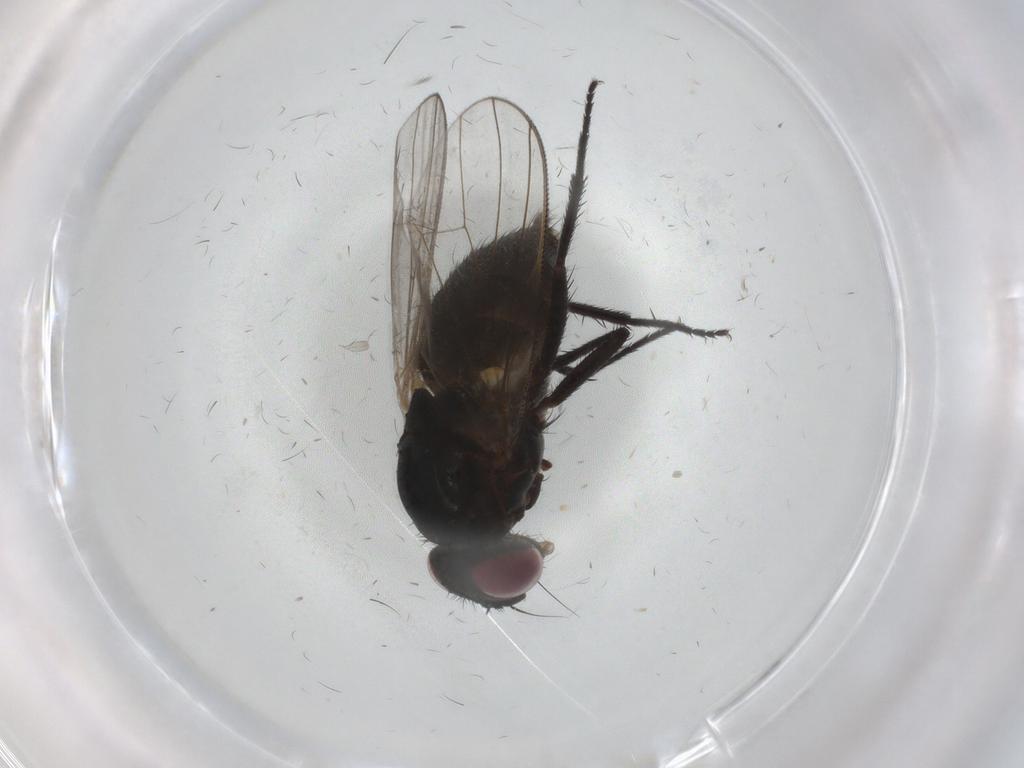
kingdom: Animalia
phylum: Arthropoda
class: Insecta
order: Diptera
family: Fannia
